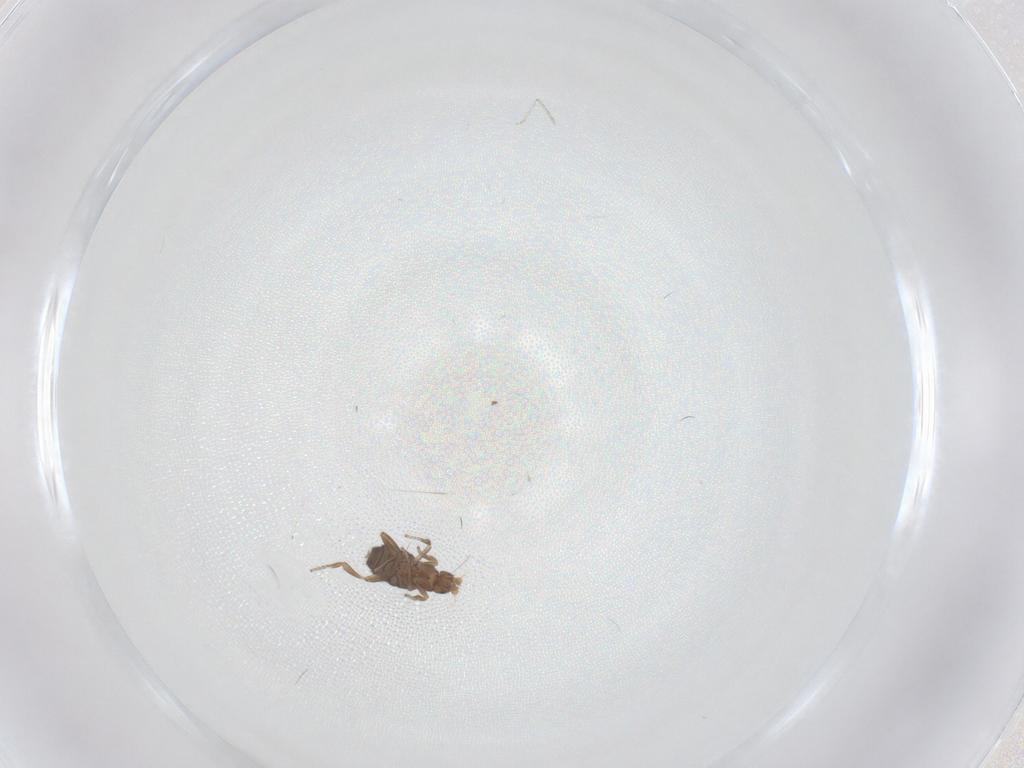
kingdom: Animalia
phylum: Arthropoda
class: Insecta
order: Diptera
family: Phoridae
